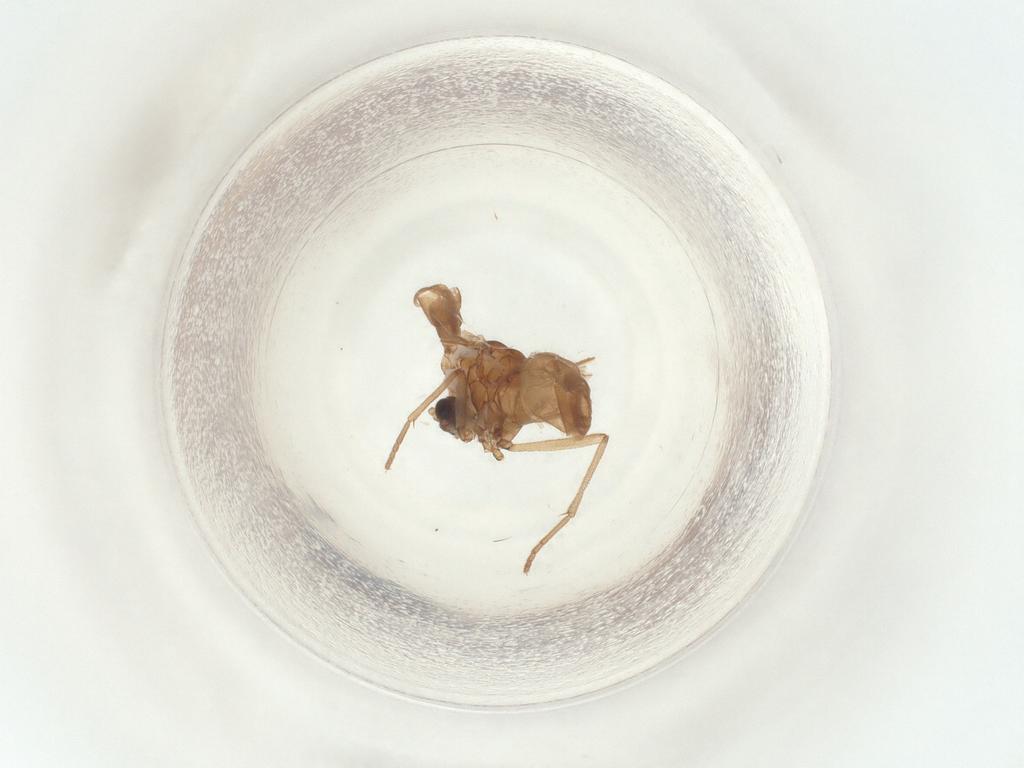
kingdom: Animalia
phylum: Arthropoda
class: Insecta
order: Diptera
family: Sciaridae
